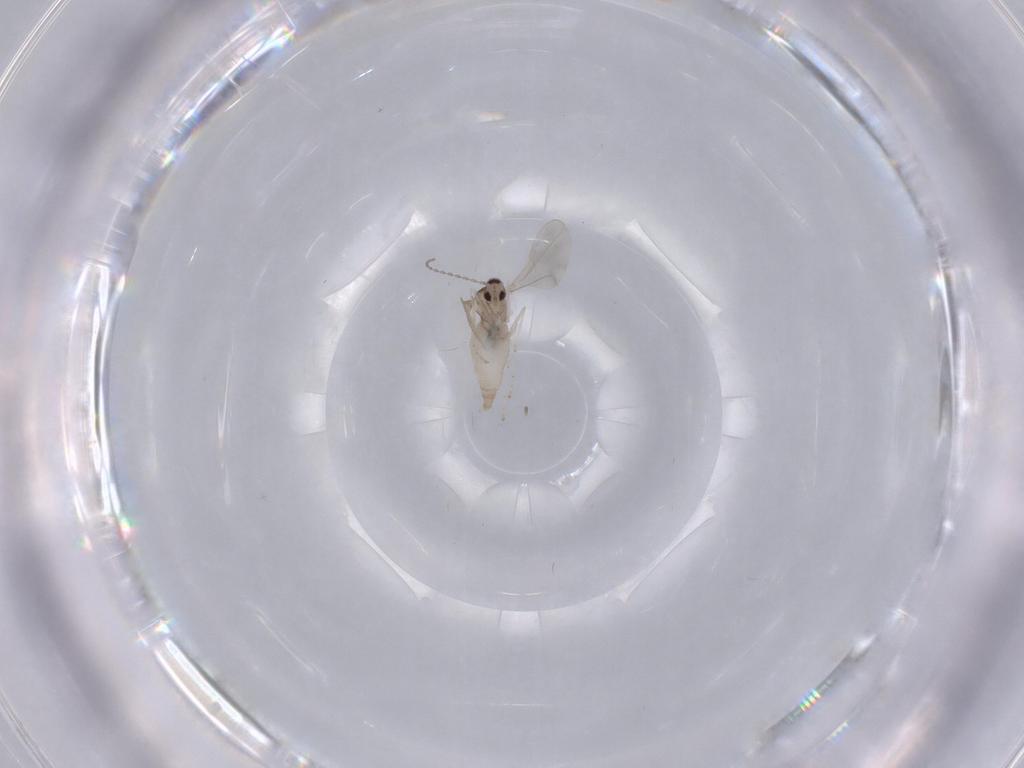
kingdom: Animalia
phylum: Arthropoda
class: Insecta
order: Diptera
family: Cecidomyiidae
